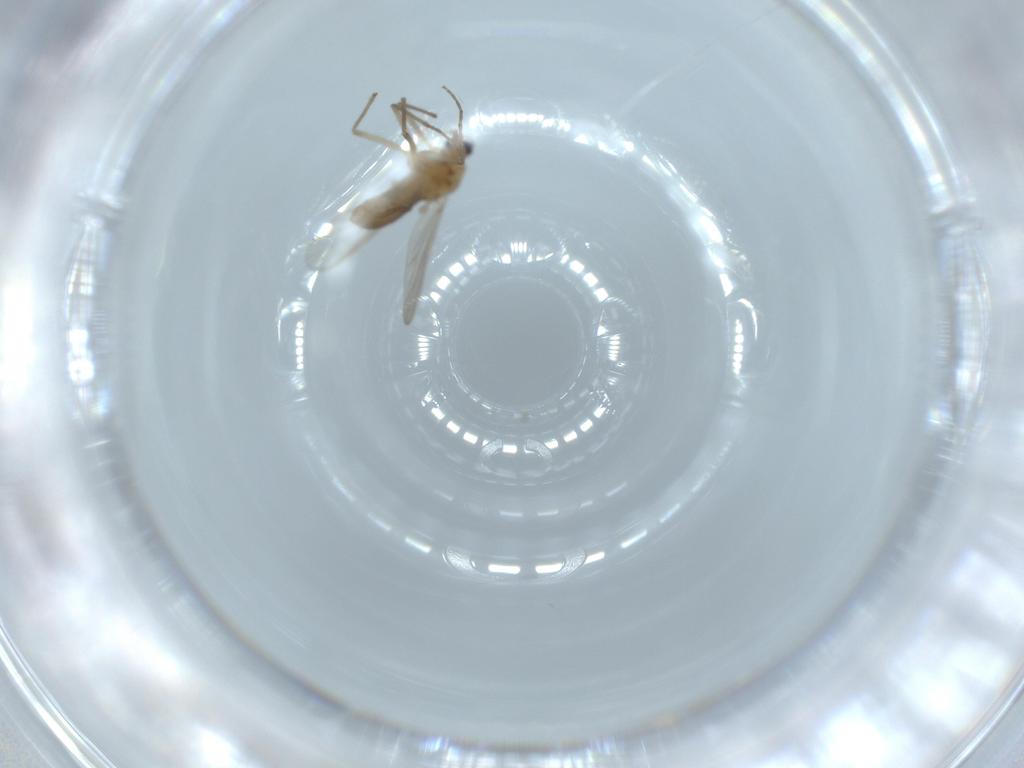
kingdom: Animalia
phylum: Arthropoda
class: Insecta
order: Diptera
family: Chironomidae
